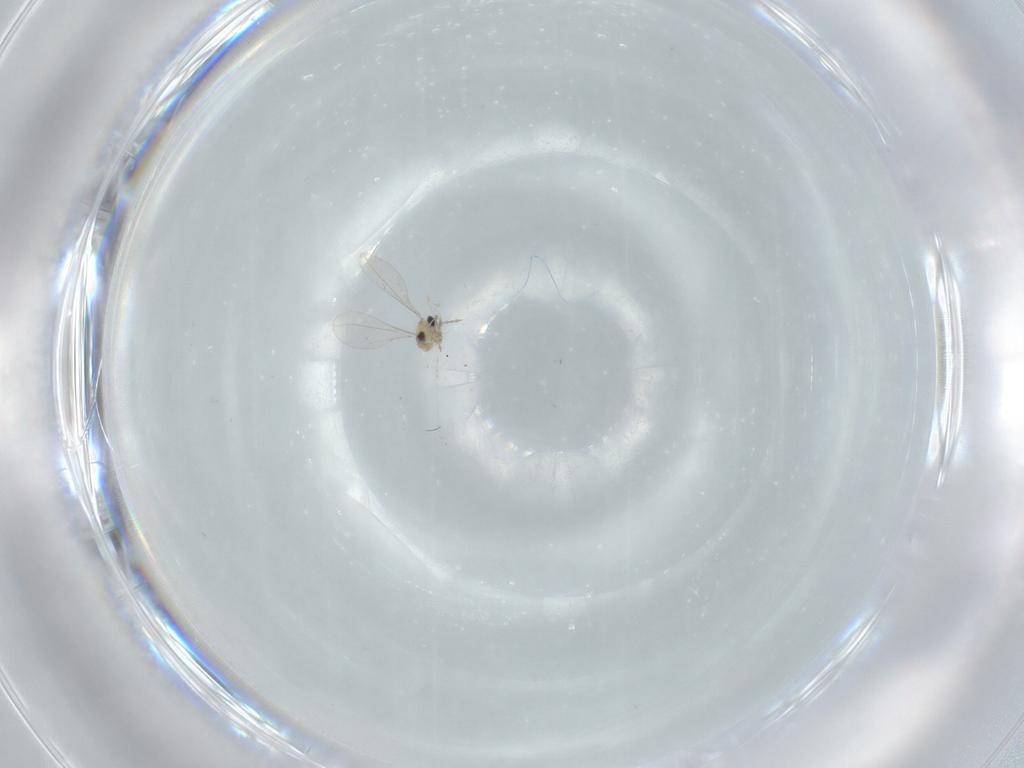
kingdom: Animalia
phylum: Arthropoda
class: Insecta
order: Diptera
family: Cecidomyiidae
